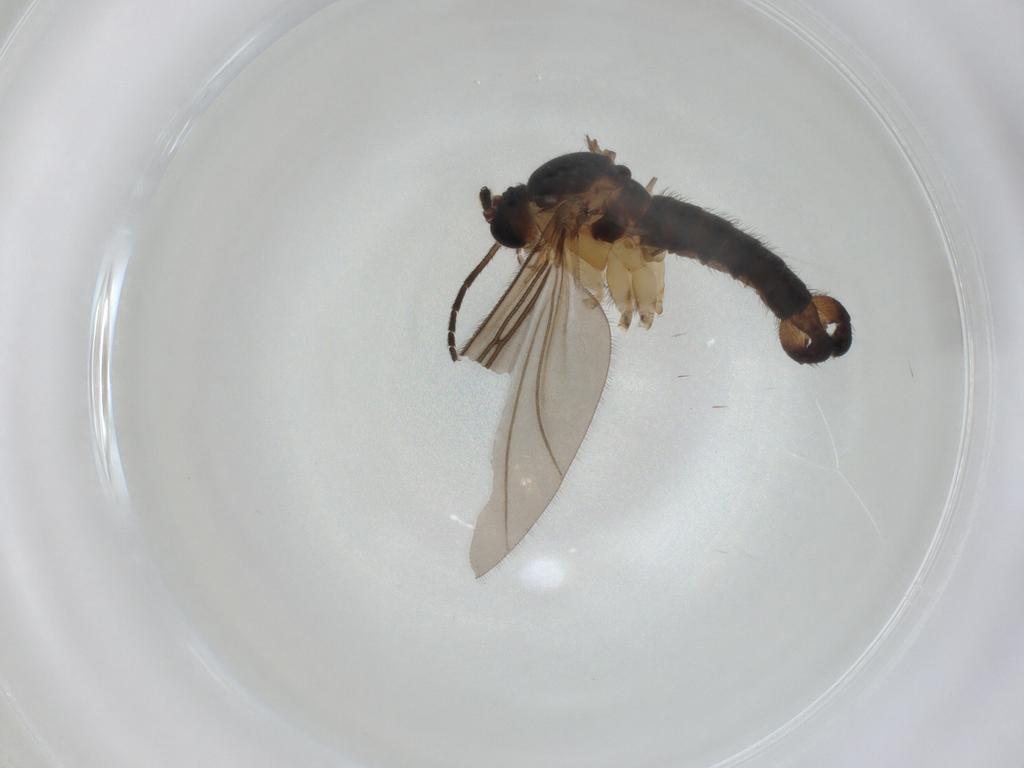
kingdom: Animalia
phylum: Arthropoda
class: Insecta
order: Diptera
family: Sciaridae
